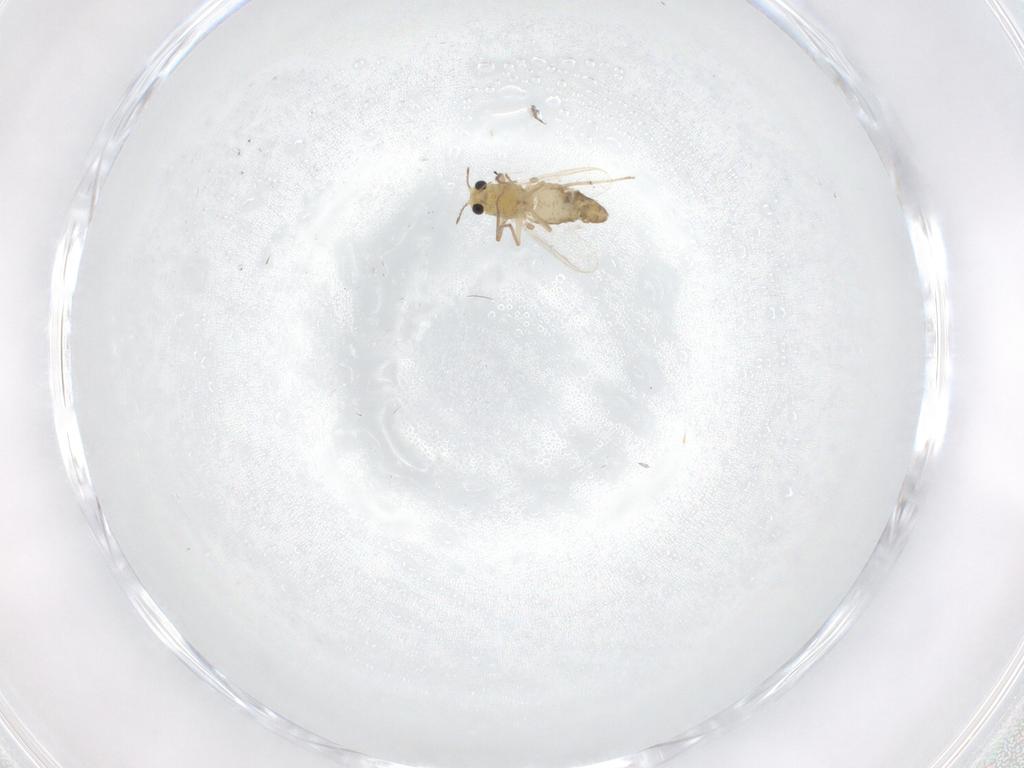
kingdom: Animalia
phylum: Arthropoda
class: Insecta
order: Diptera
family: Chironomidae
